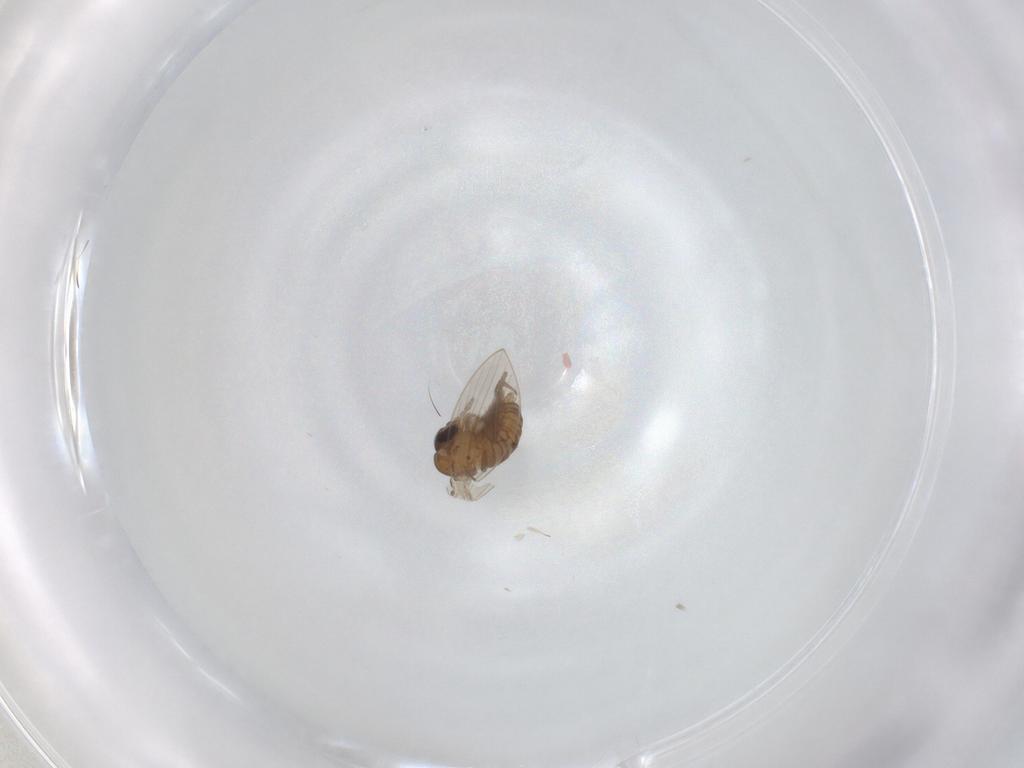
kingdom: Animalia
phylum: Arthropoda
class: Insecta
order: Diptera
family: Psychodidae
